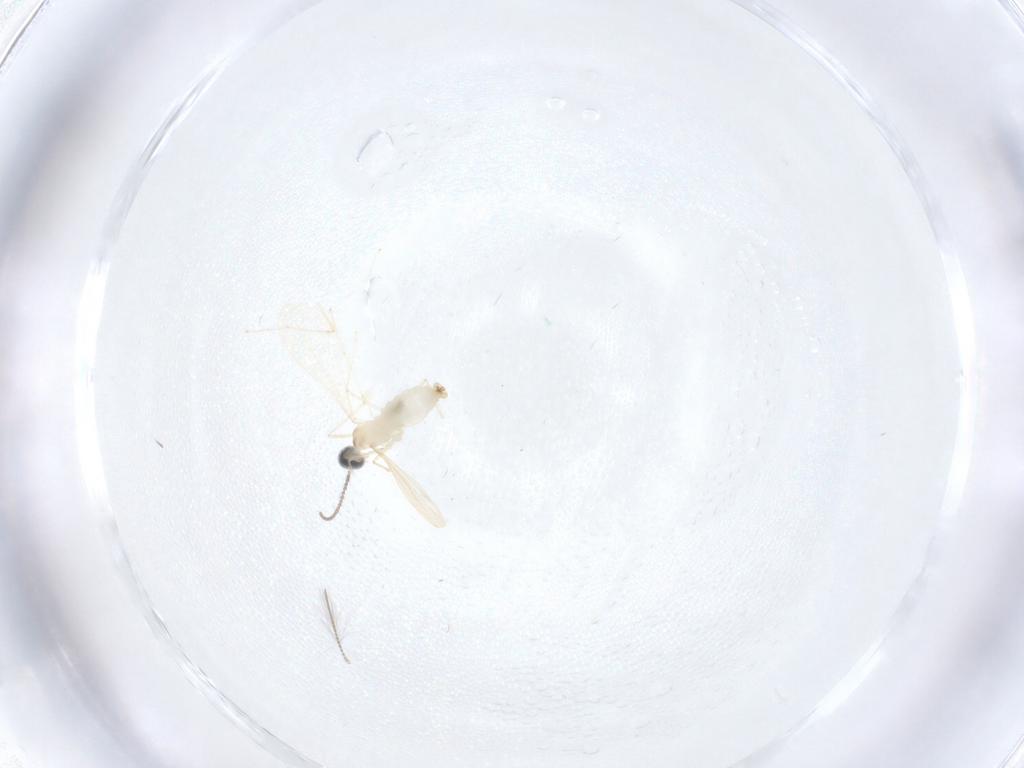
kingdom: Animalia
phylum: Arthropoda
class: Insecta
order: Diptera
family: Cecidomyiidae
